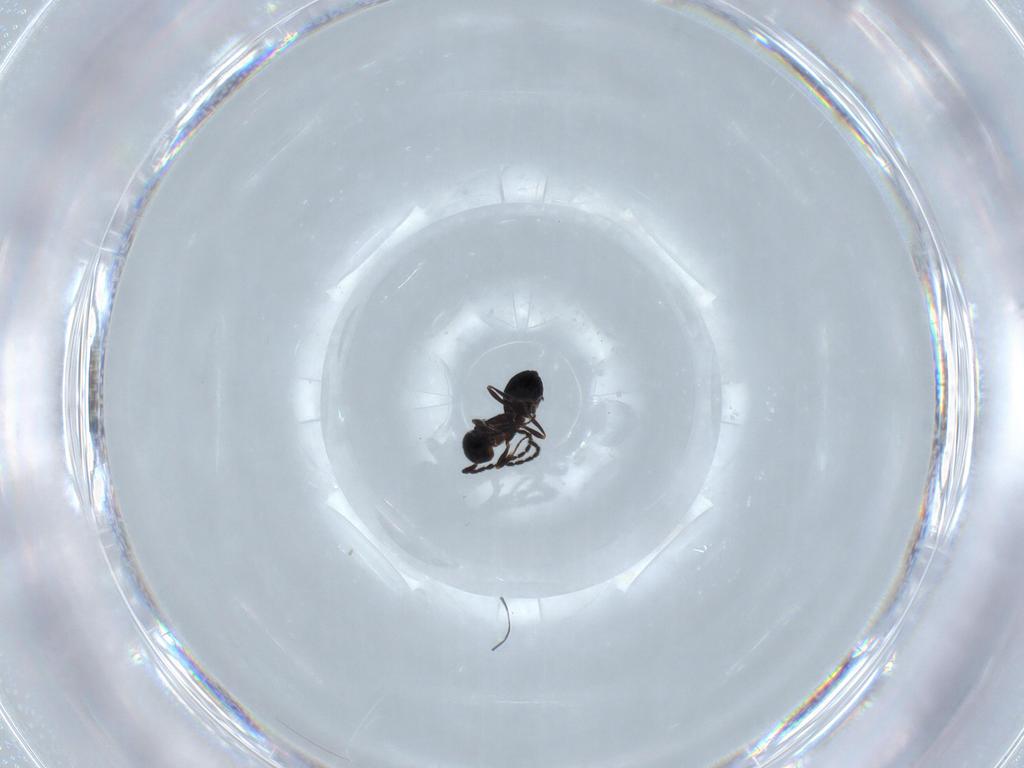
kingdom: Animalia
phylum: Arthropoda
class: Insecta
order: Hymenoptera
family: Scelionidae
